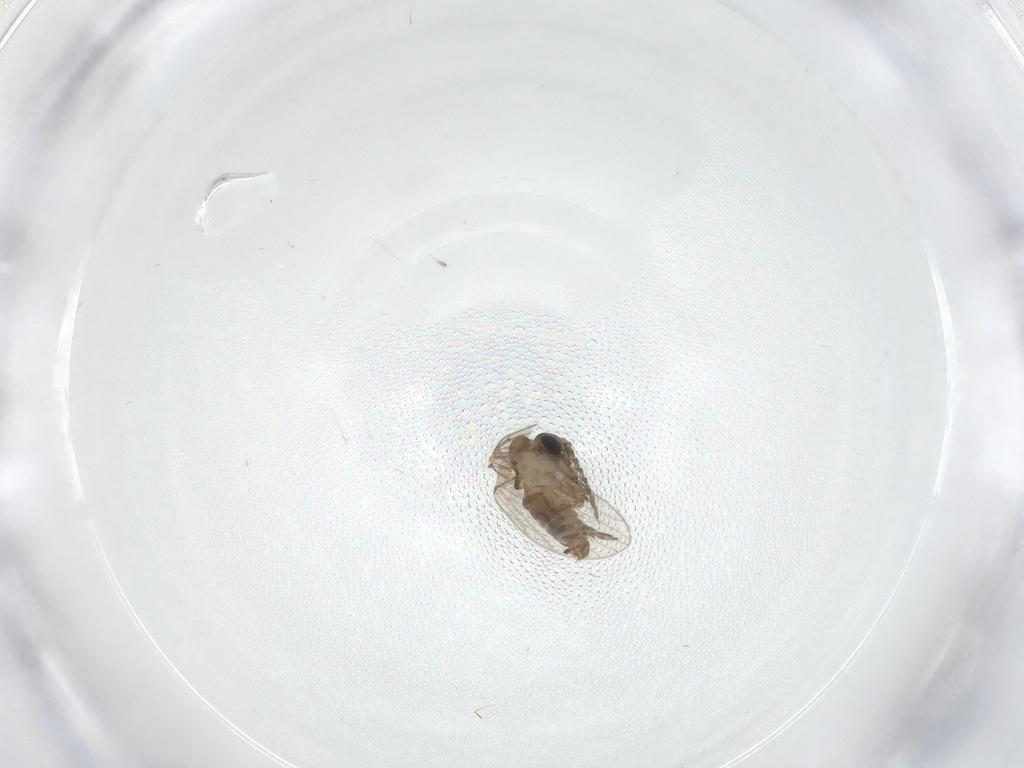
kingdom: Animalia
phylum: Arthropoda
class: Insecta
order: Diptera
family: Psychodidae
